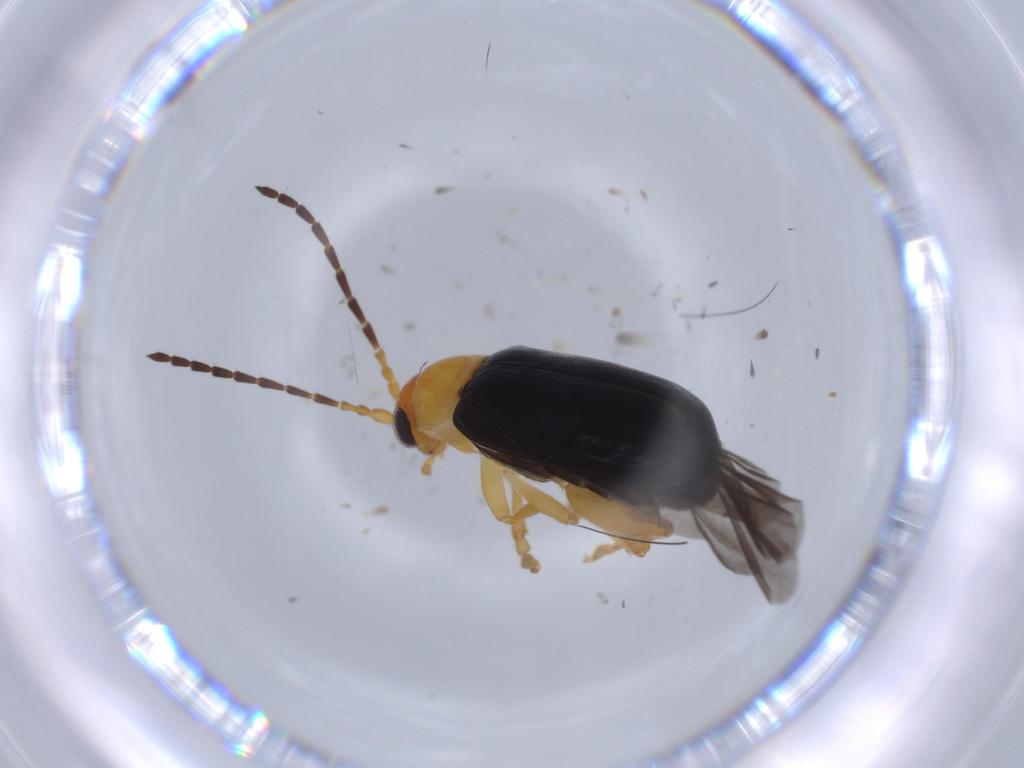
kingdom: Animalia
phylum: Arthropoda
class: Insecta
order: Coleoptera
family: Chrysomelidae
